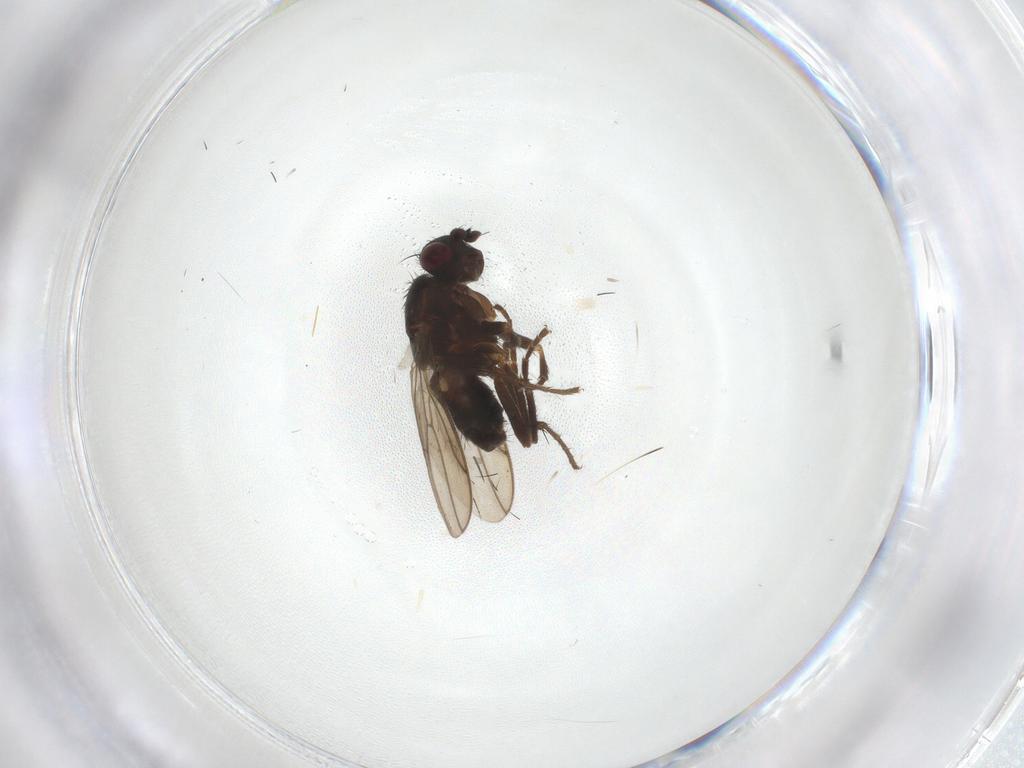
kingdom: Animalia
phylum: Arthropoda
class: Insecta
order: Diptera
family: Sphaeroceridae
